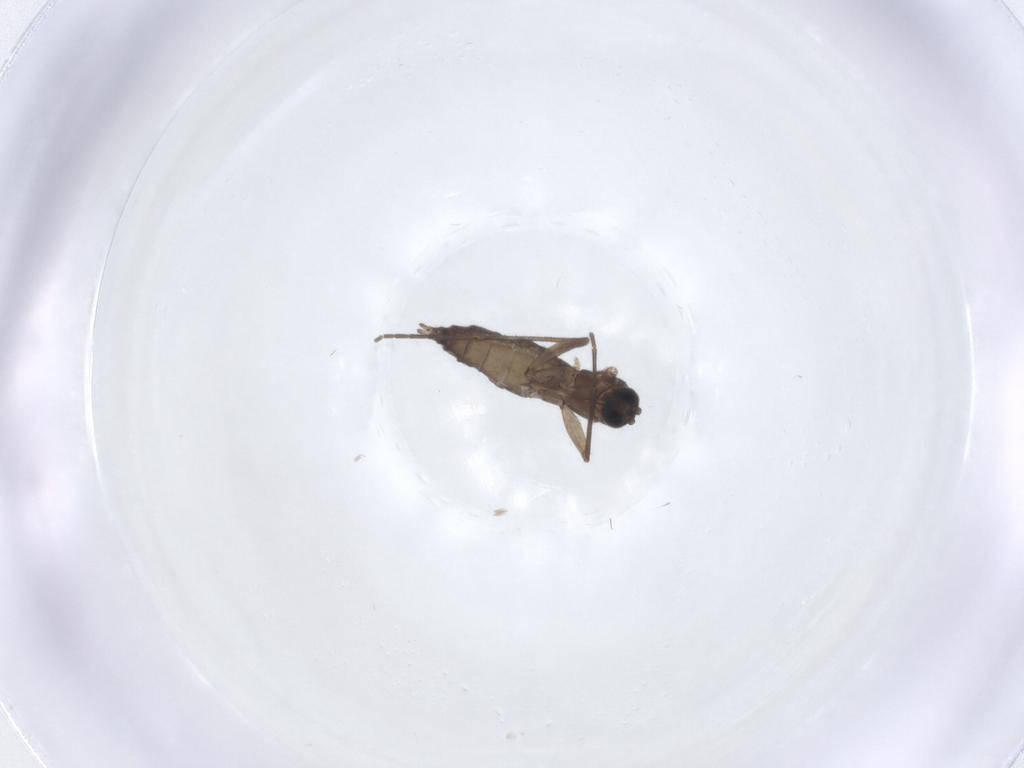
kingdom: Animalia
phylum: Arthropoda
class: Insecta
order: Diptera
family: Sciaridae
